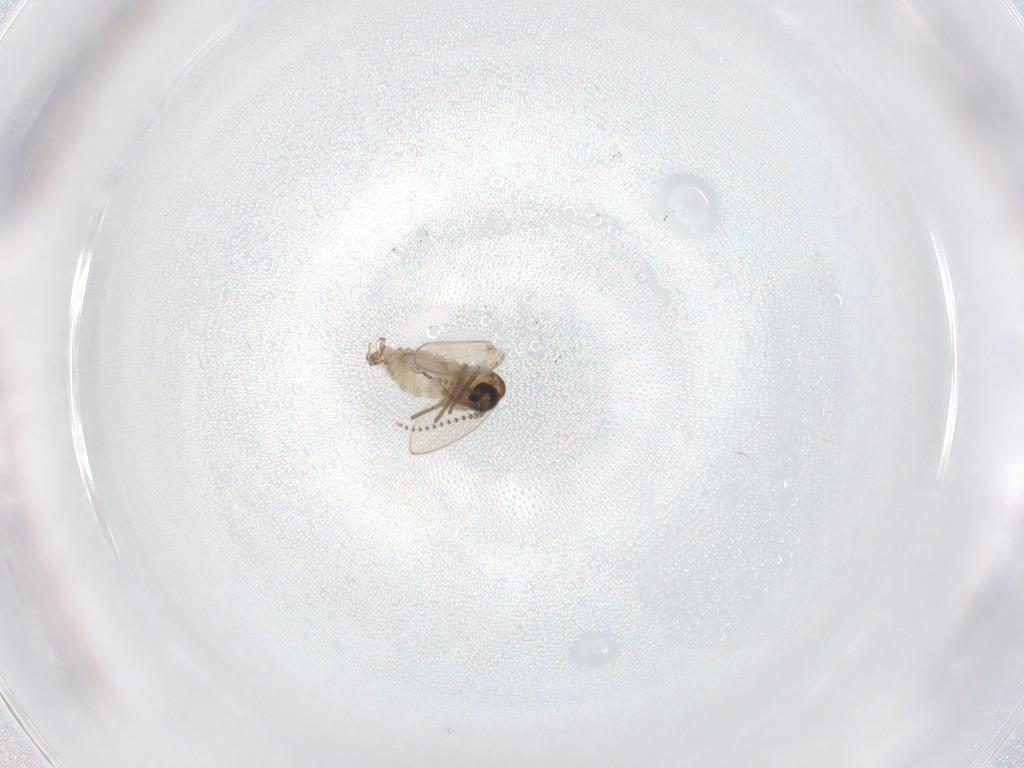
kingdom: Animalia
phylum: Arthropoda
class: Insecta
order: Diptera
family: Psychodidae
